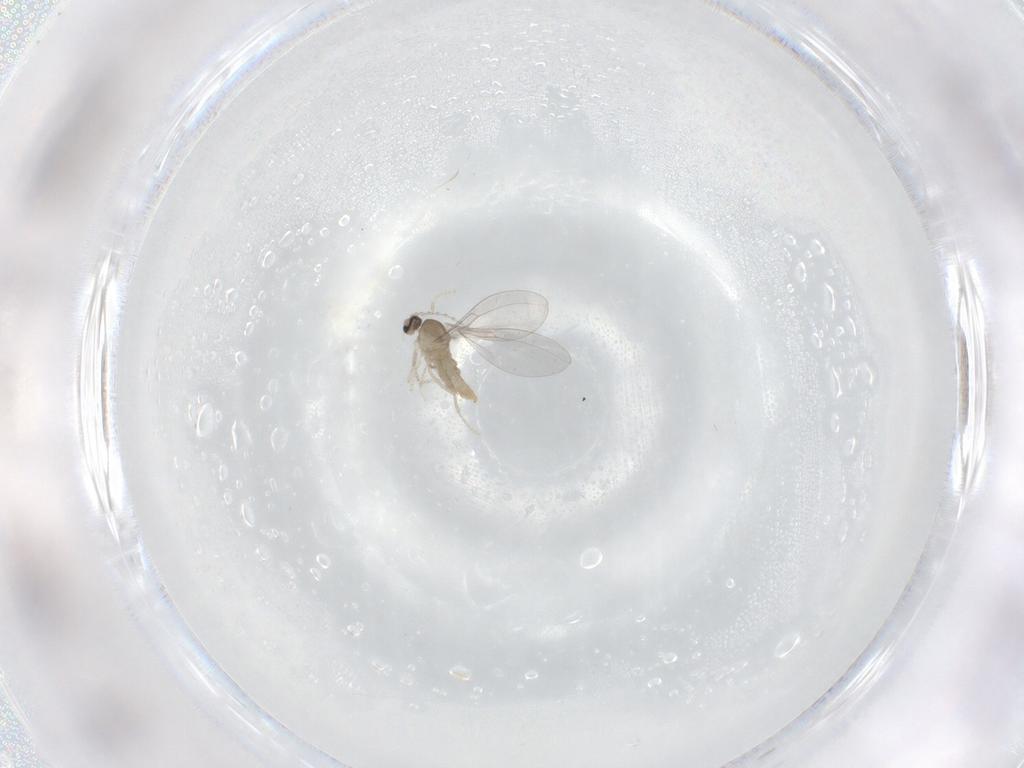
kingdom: Animalia
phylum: Arthropoda
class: Insecta
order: Diptera
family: Cecidomyiidae
